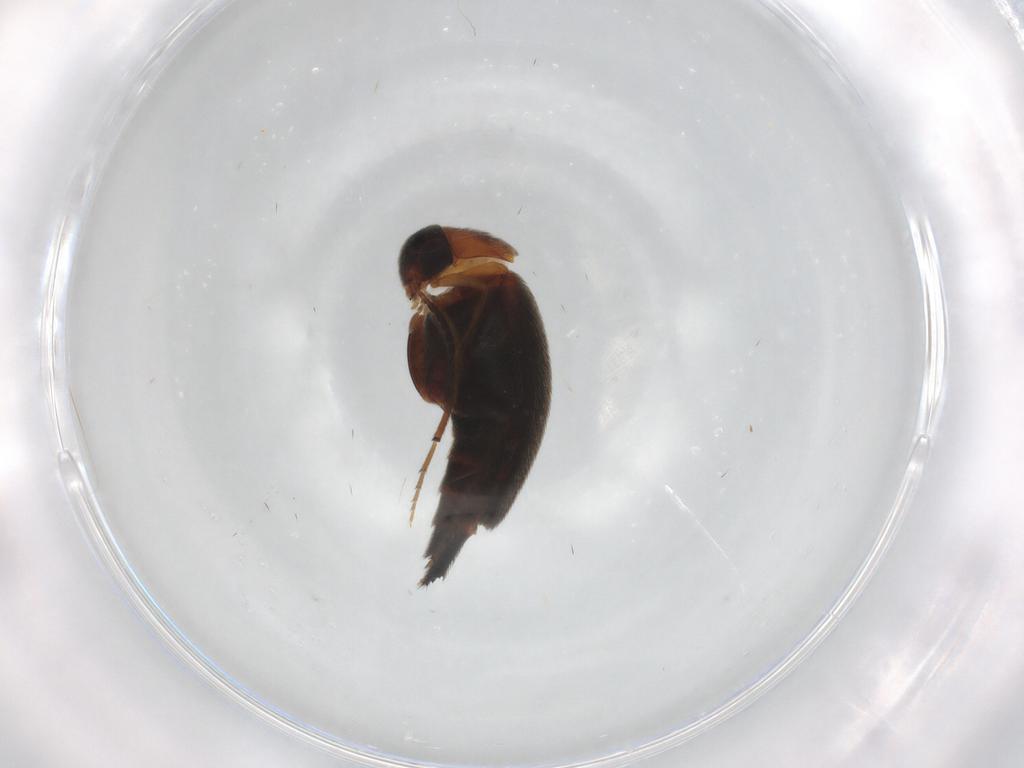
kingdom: Animalia
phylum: Arthropoda
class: Insecta
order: Coleoptera
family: Mordellidae
